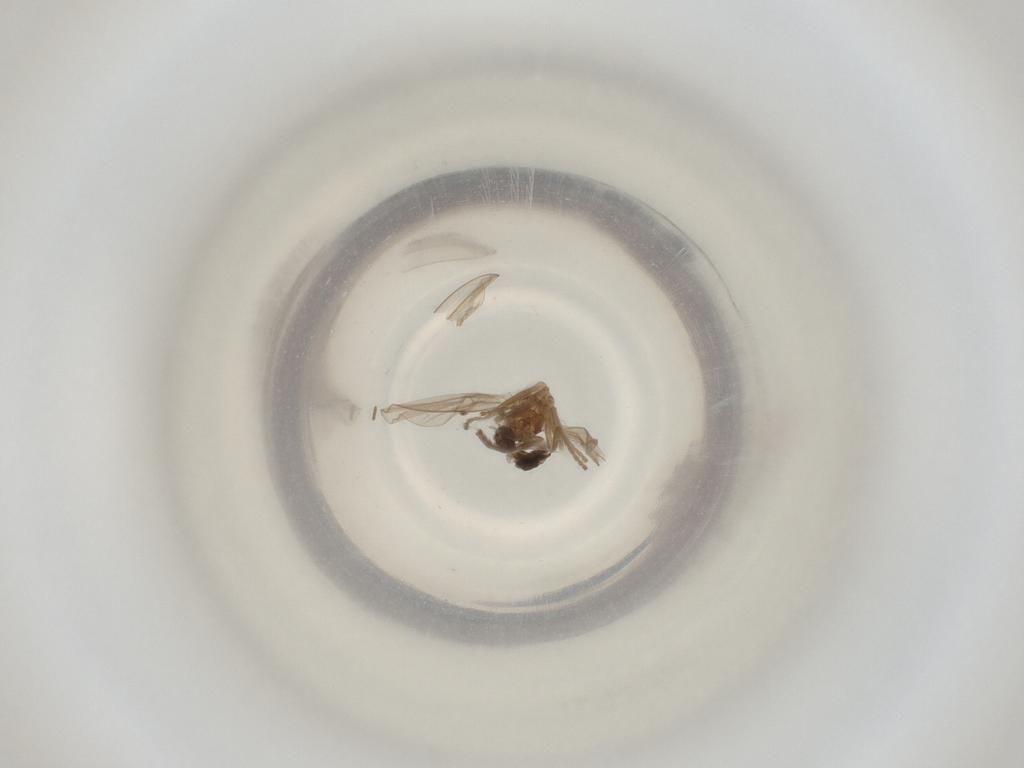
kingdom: Animalia
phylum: Arthropoda
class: Insecta
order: Diptera
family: Cecidomyiidae
